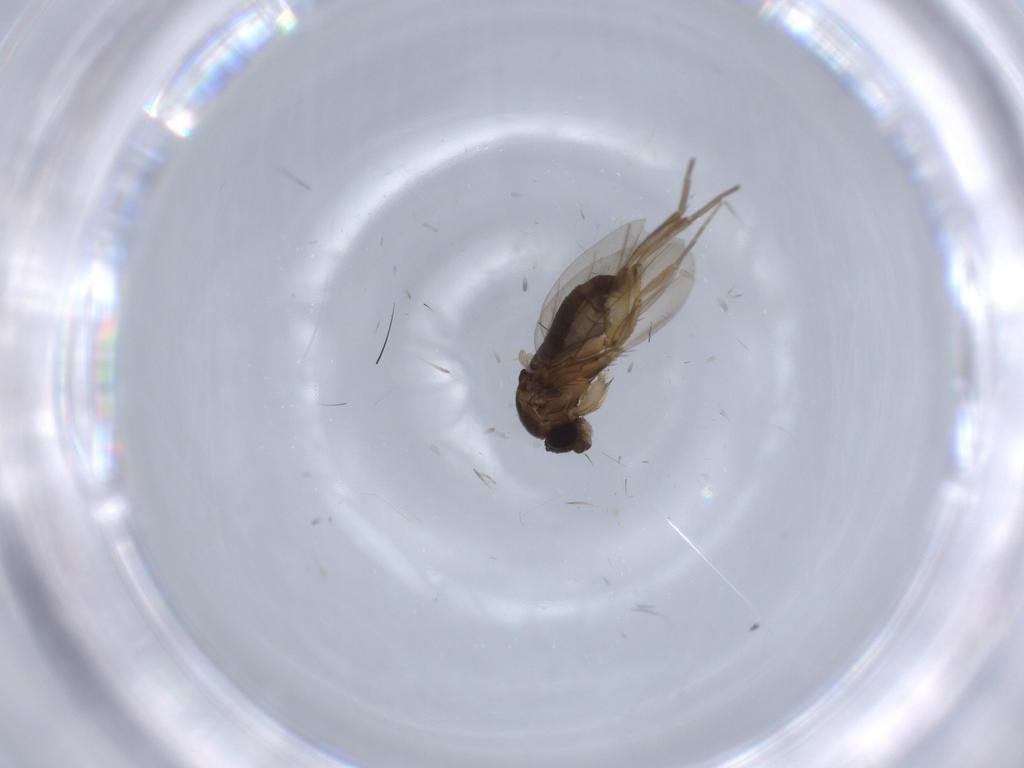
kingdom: Animalia
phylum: Arthropoda
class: Insecta
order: Diptera
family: Phoridae
